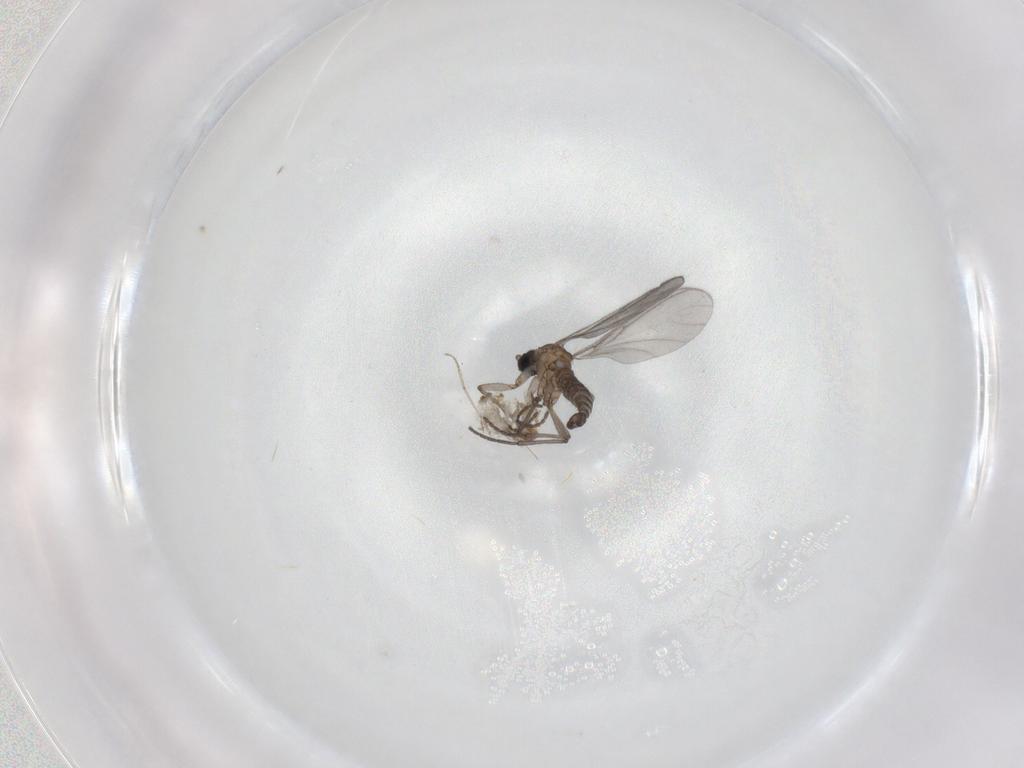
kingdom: Animalia
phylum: Arthropoda
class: Insecta
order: Diptera
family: Sciaridae
